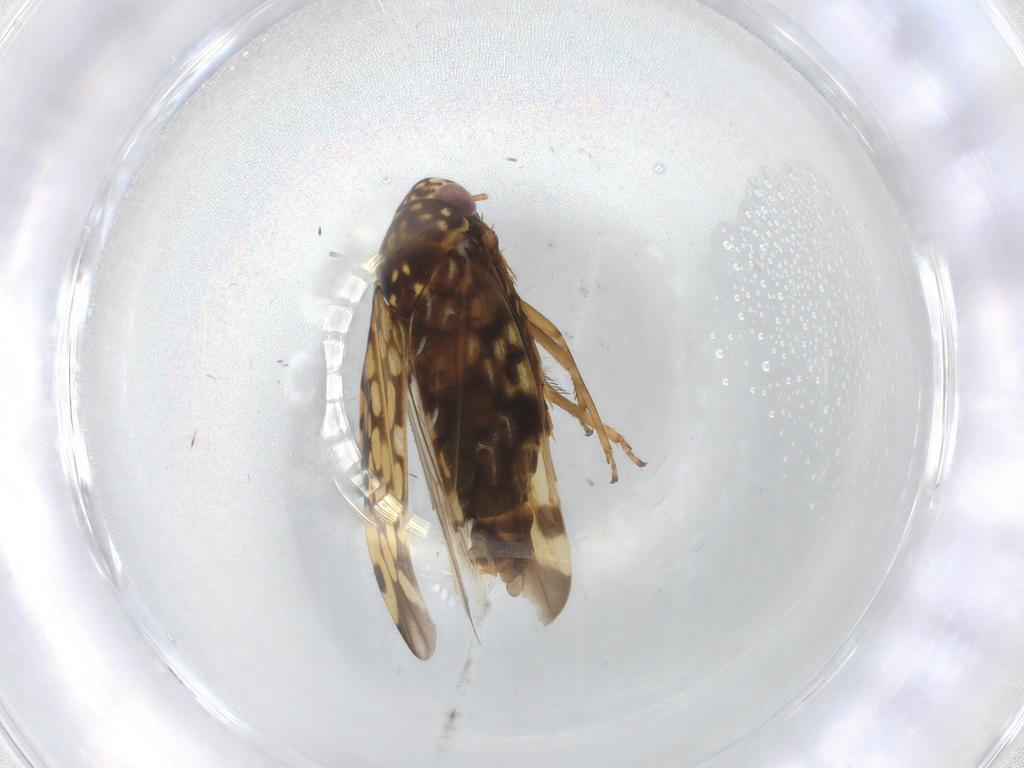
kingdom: Animalia
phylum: Arthropoda
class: Insecta
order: Hemiptera
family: Cicadellidae
